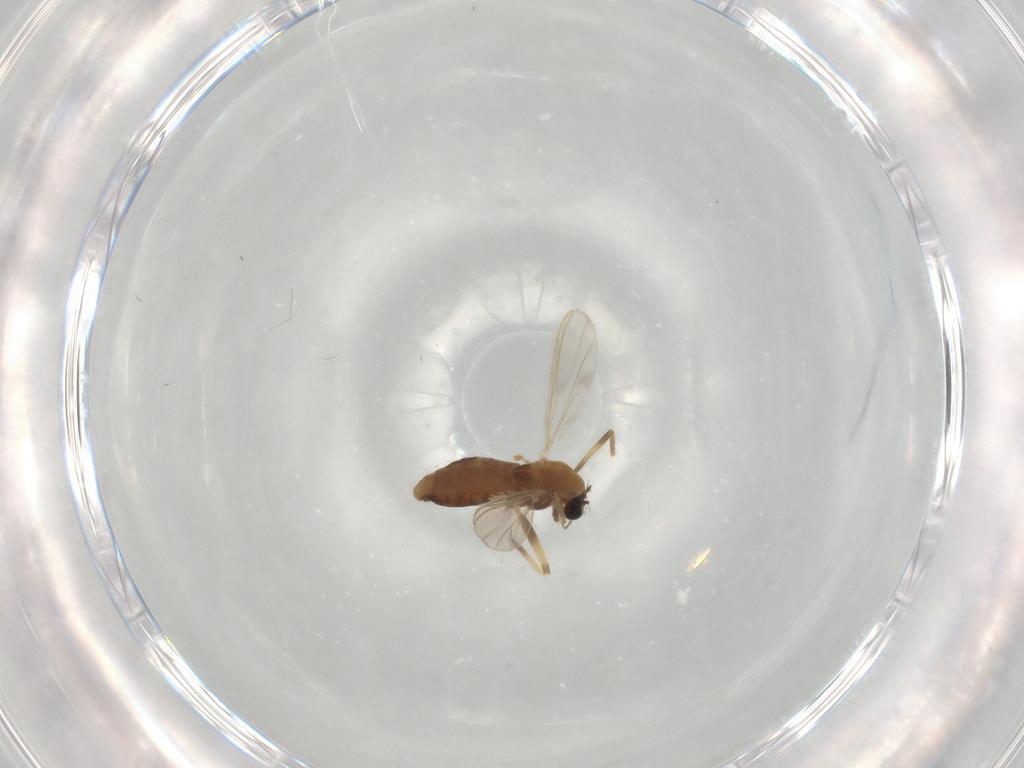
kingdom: Animalia
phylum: Arthropoda
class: Insecta
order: Diptera
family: Chironomidae
